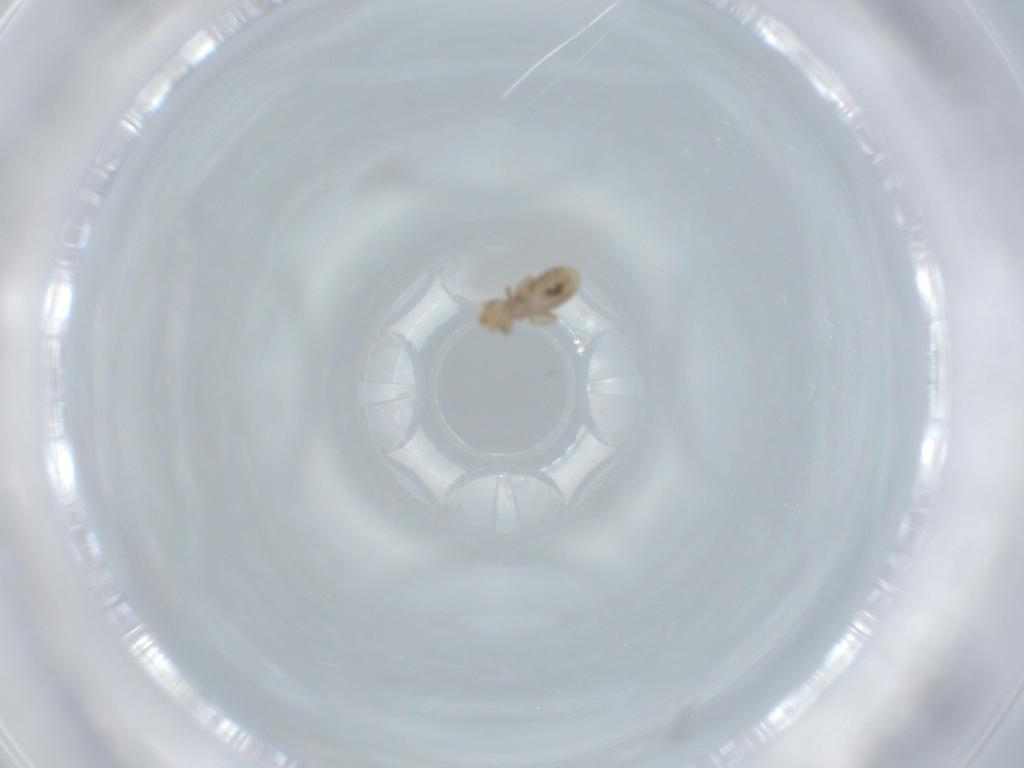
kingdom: Animalia
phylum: Arthropoda
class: Insecta
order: Psocodea
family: Liposcelididae
